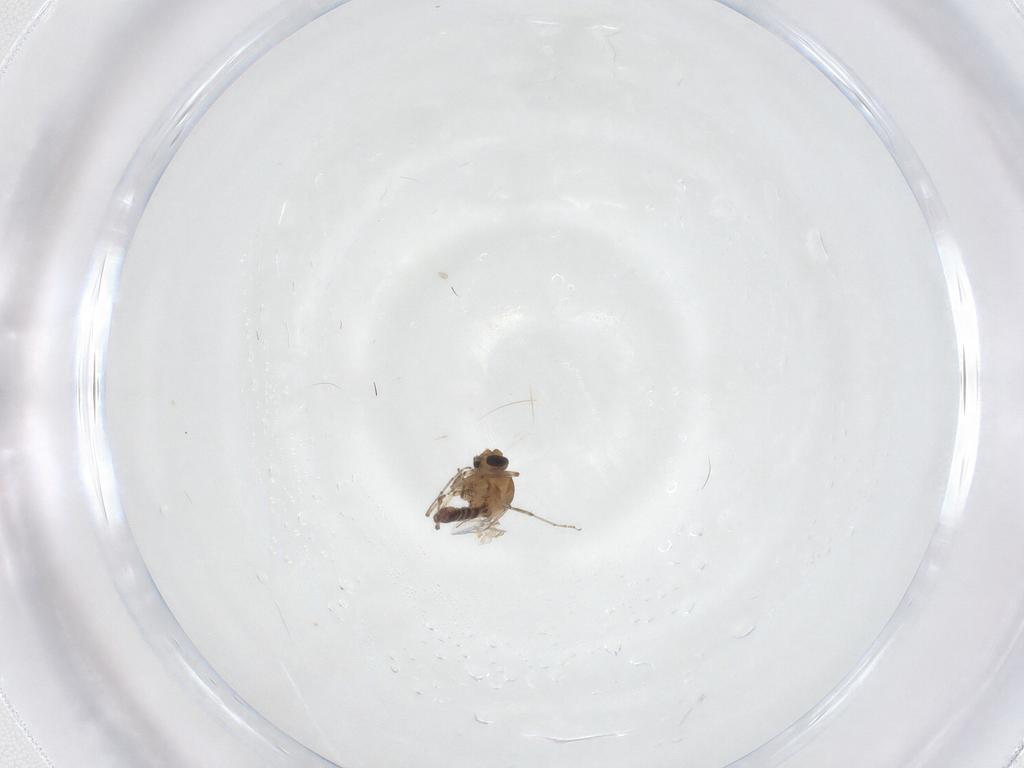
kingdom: Animalia
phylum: Arthropoda
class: Insecta
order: Diptera
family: Ceratopogonidae
